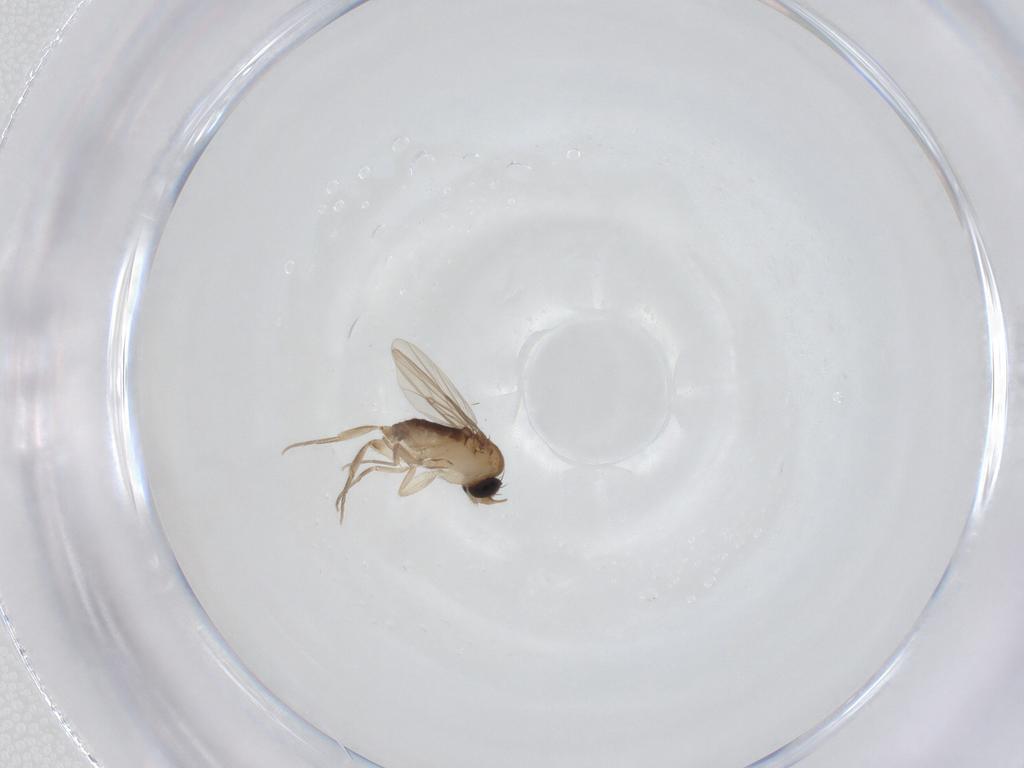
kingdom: Animalia
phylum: Arthropoda
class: Insecta
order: Diptera
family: Phoridae
